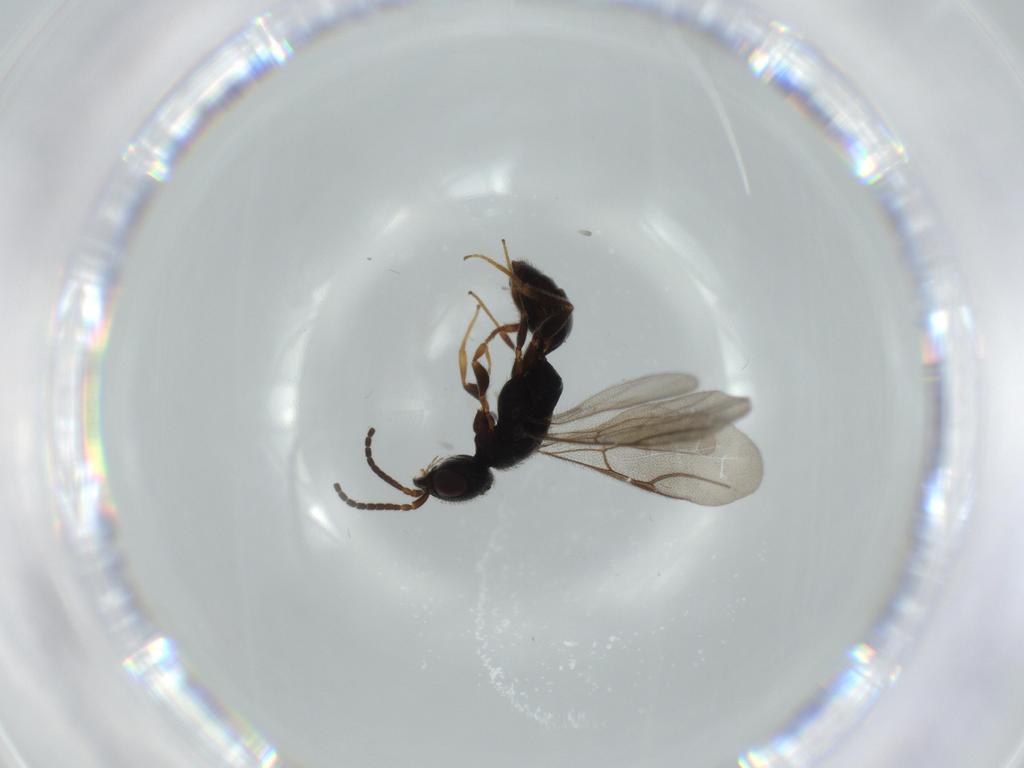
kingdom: Animalia
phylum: Arthropoda
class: Insecta
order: Hymenoptera
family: Bethylidae
